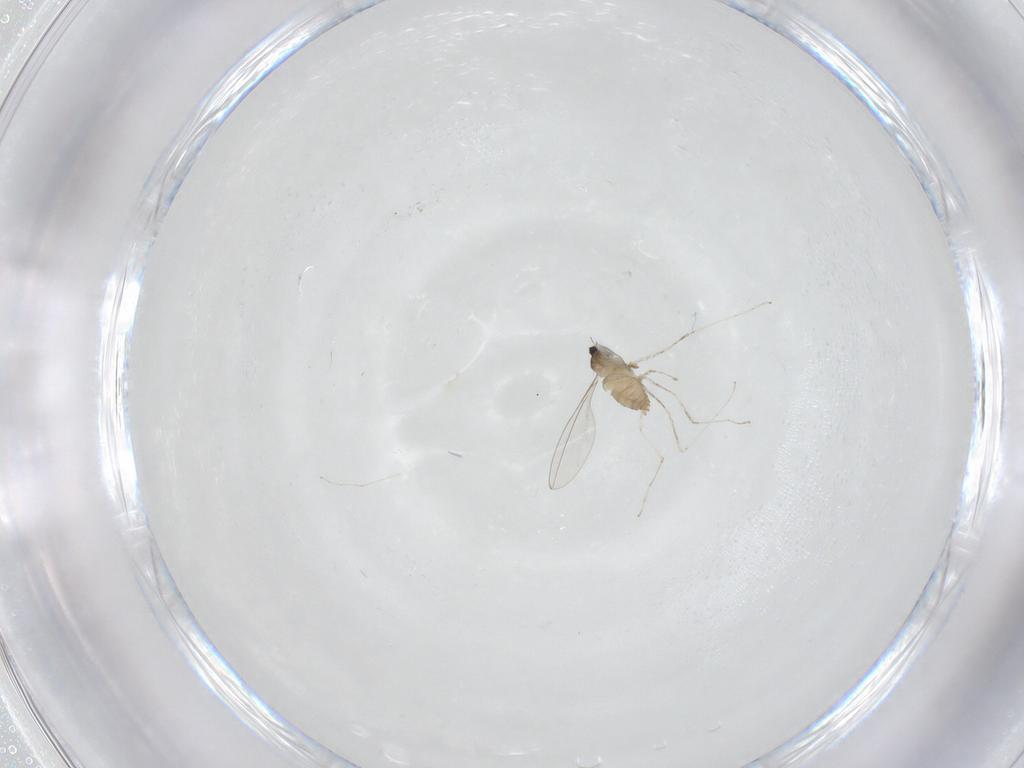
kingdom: Animalia
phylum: Arthropoda
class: Insecta
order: Diptera
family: Cecidomyiidae
